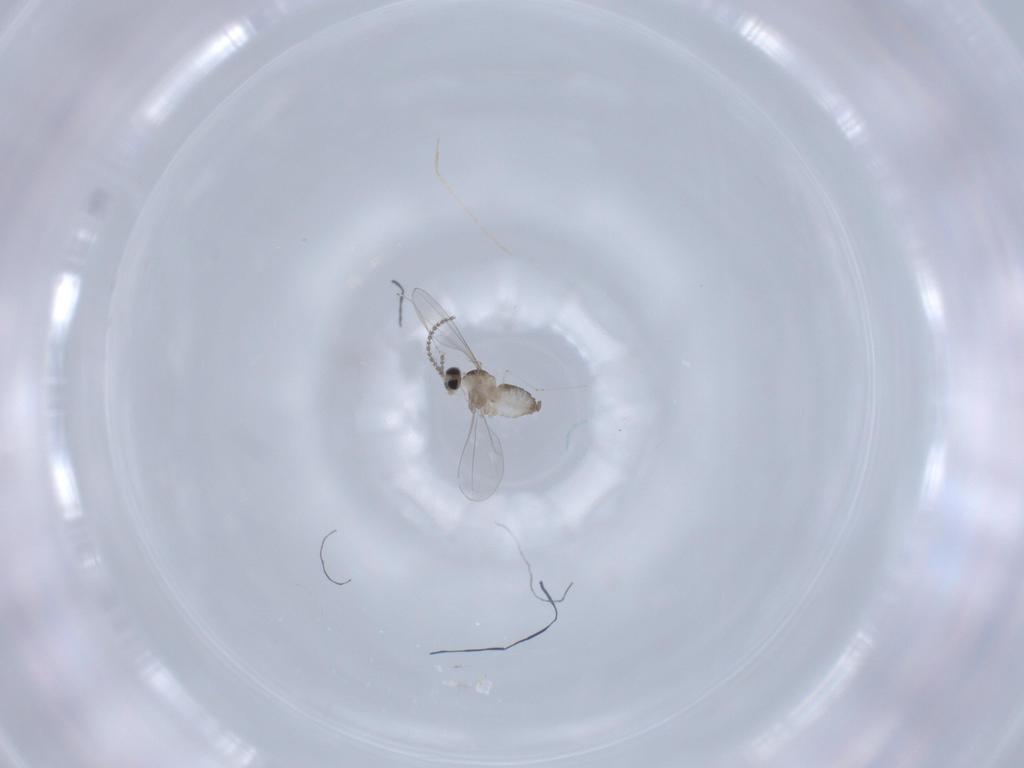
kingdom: Animalia
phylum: Arthropoda
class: Insecta
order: Diptera
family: Cecidomyiidae
